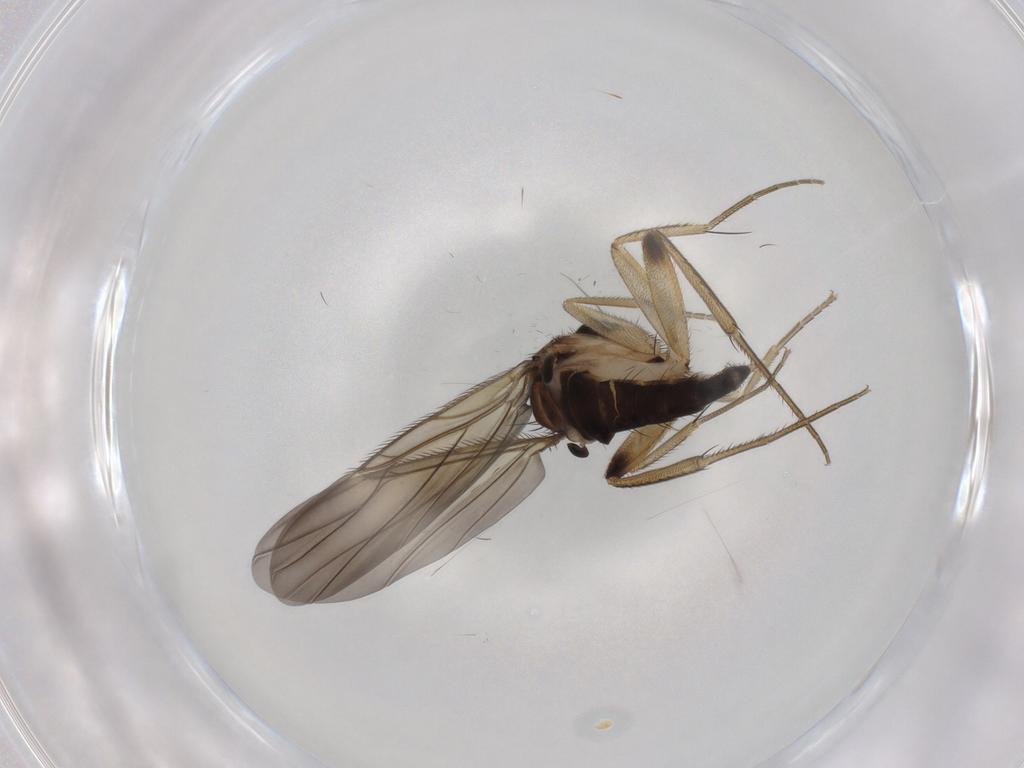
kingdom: Animalia
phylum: Arthropoda
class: Insecta
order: Diptera
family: Phoridae
